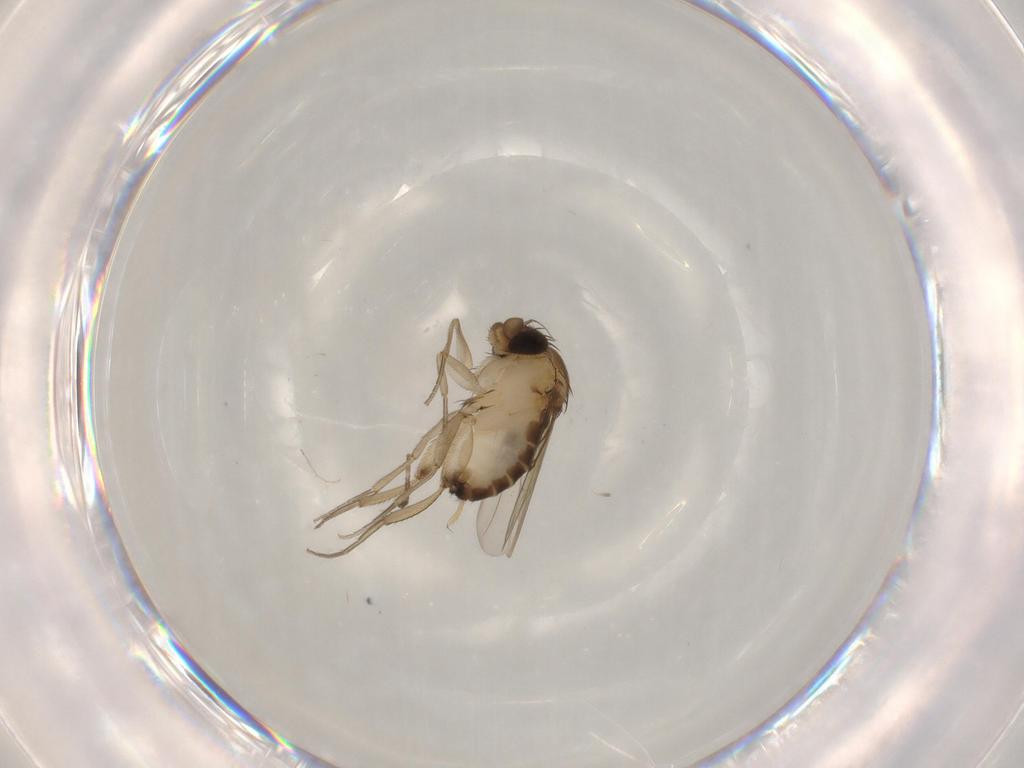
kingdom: Animalia
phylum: Arthropoda
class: Insecta
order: Diptera
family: Phoridae
